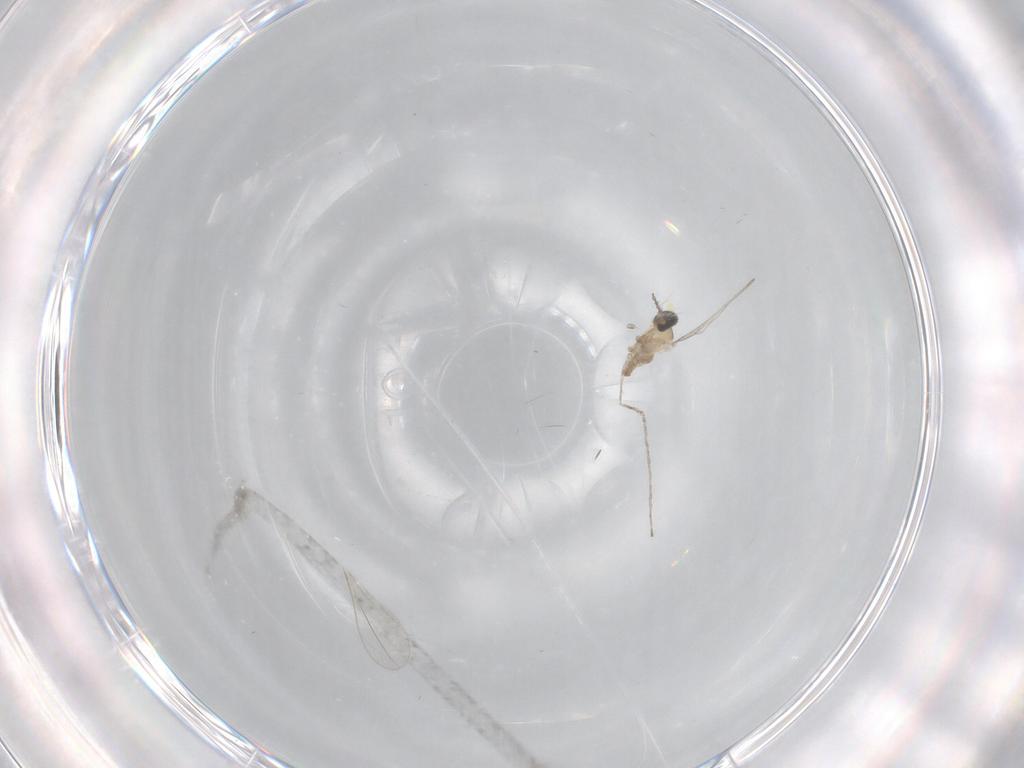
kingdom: Animalia
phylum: Arthropoda
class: Insecta
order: Diptera
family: Cecidomyiidae
